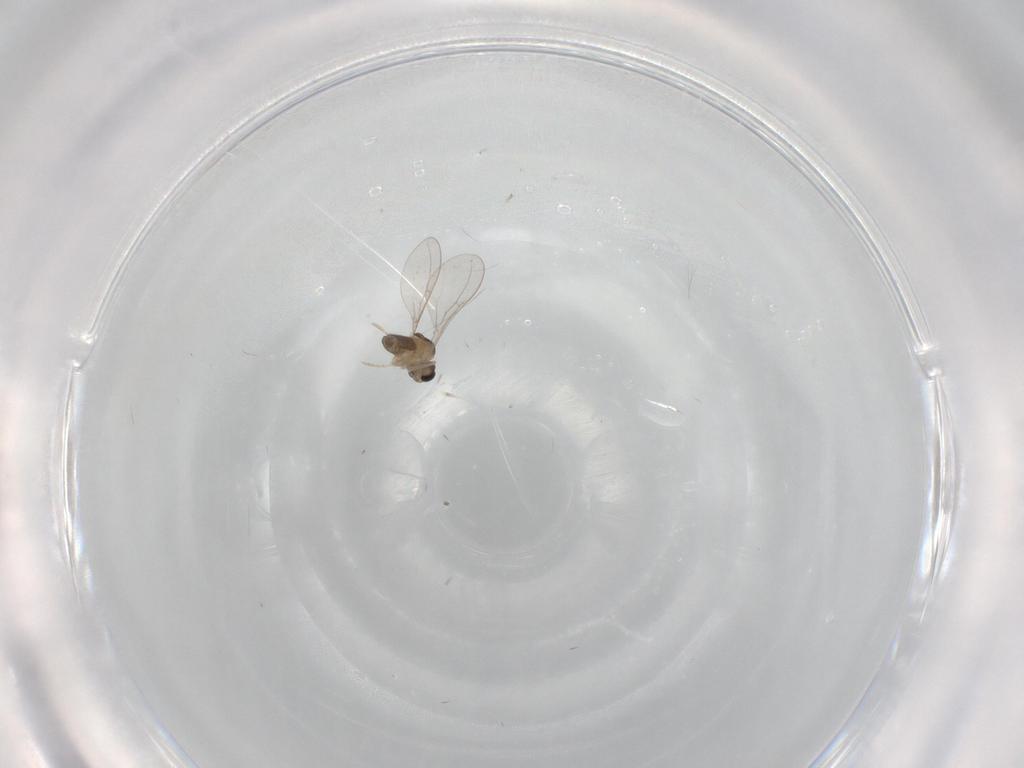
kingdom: Animalia
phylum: Arthropoda
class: Insecta
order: Diptera
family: Cecidomyiidae
